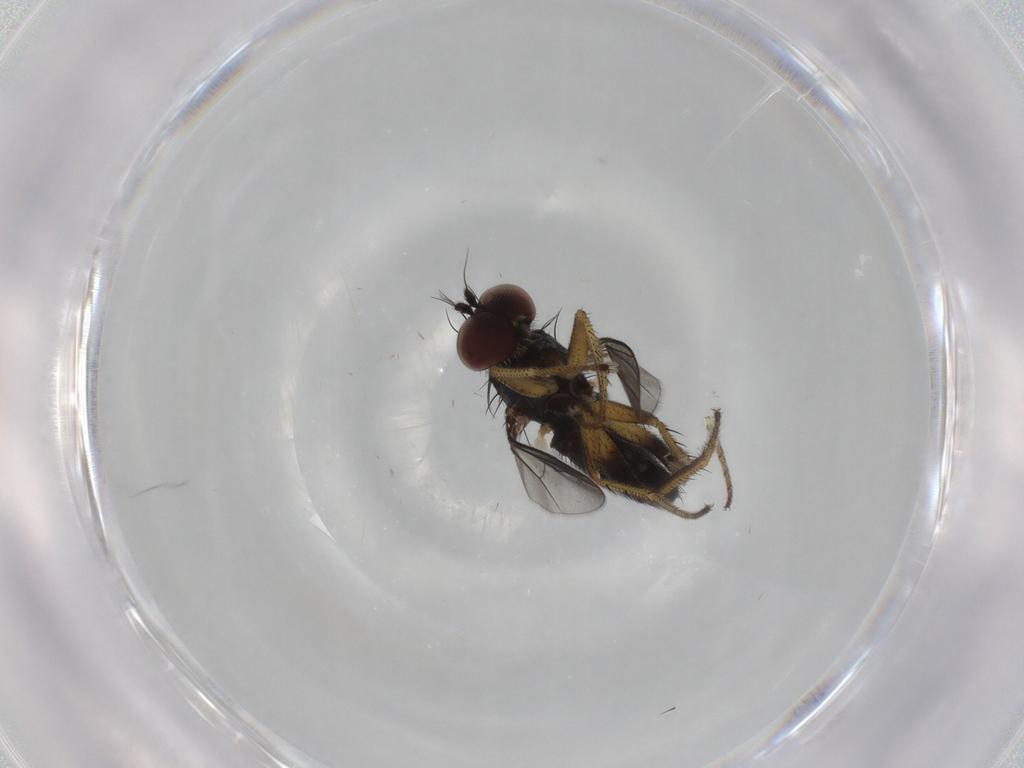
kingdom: Animalia
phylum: Arthropoda
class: Insecta
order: Diptera
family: Dolichopodidae
